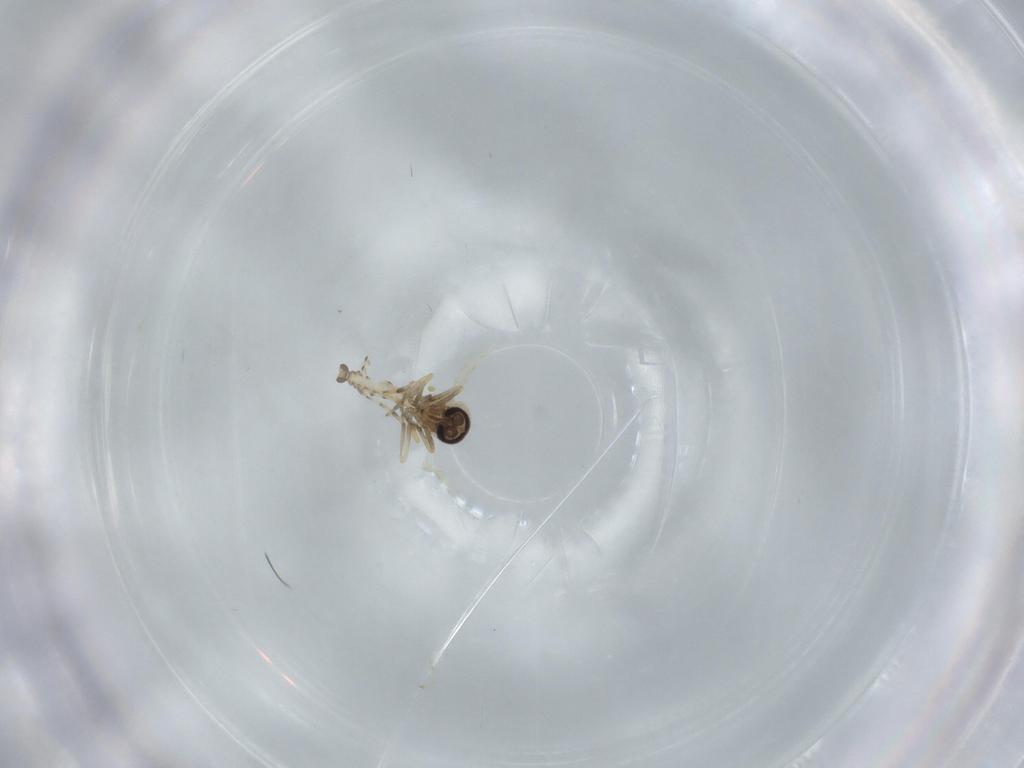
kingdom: Animalia
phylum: Arthropoda
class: Insecta
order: Diptera
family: Ceratopogonidae
